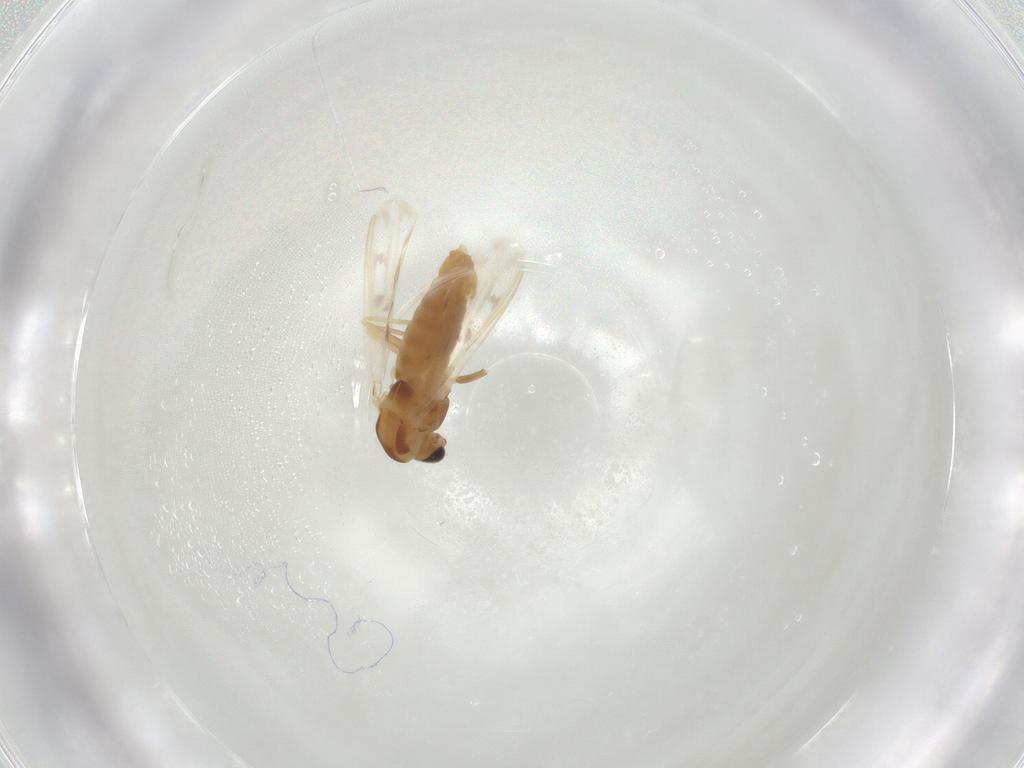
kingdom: Animalia
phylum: Arthropoda
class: Insecta
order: Diptera
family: Chironomidae
